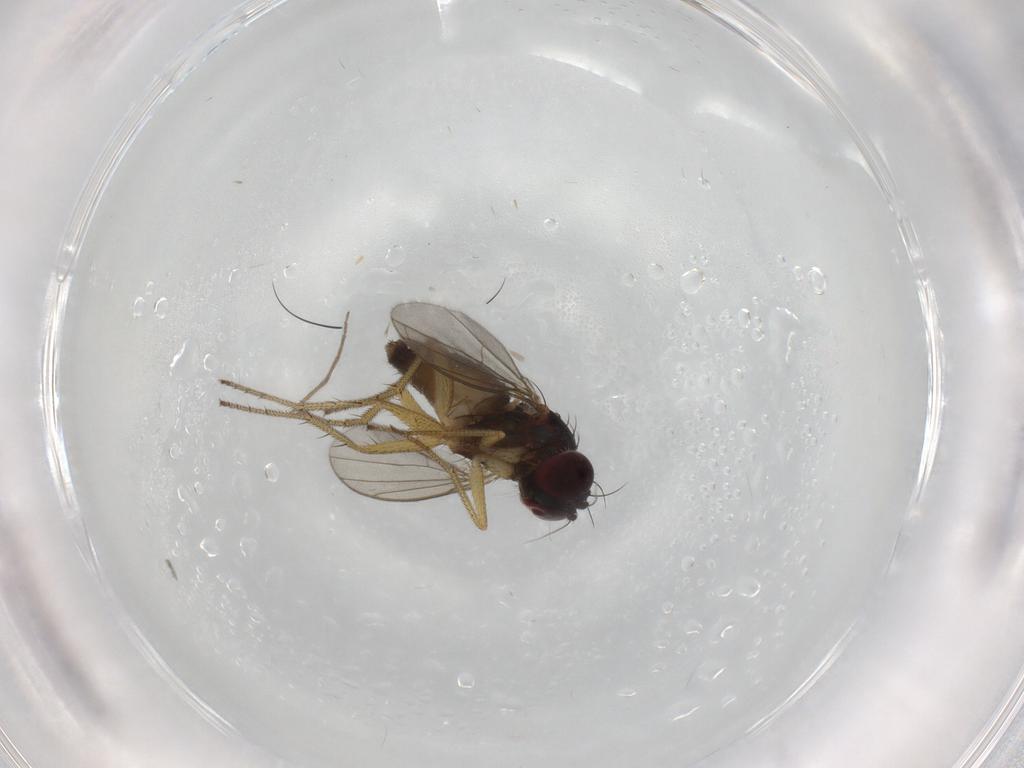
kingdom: Animalia
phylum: Arthropoda
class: Insecta
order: Diptera
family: Chironomidae
